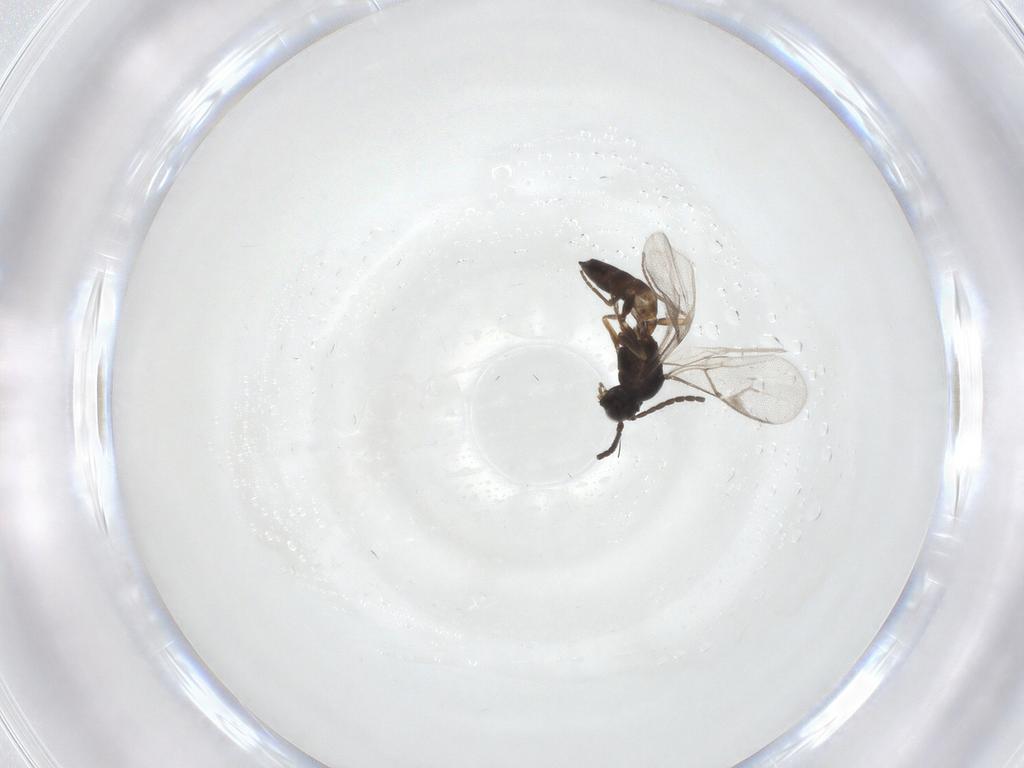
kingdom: Animalia
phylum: Arthropoda
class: Insecta
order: Hymenoptera
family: Braconidae
